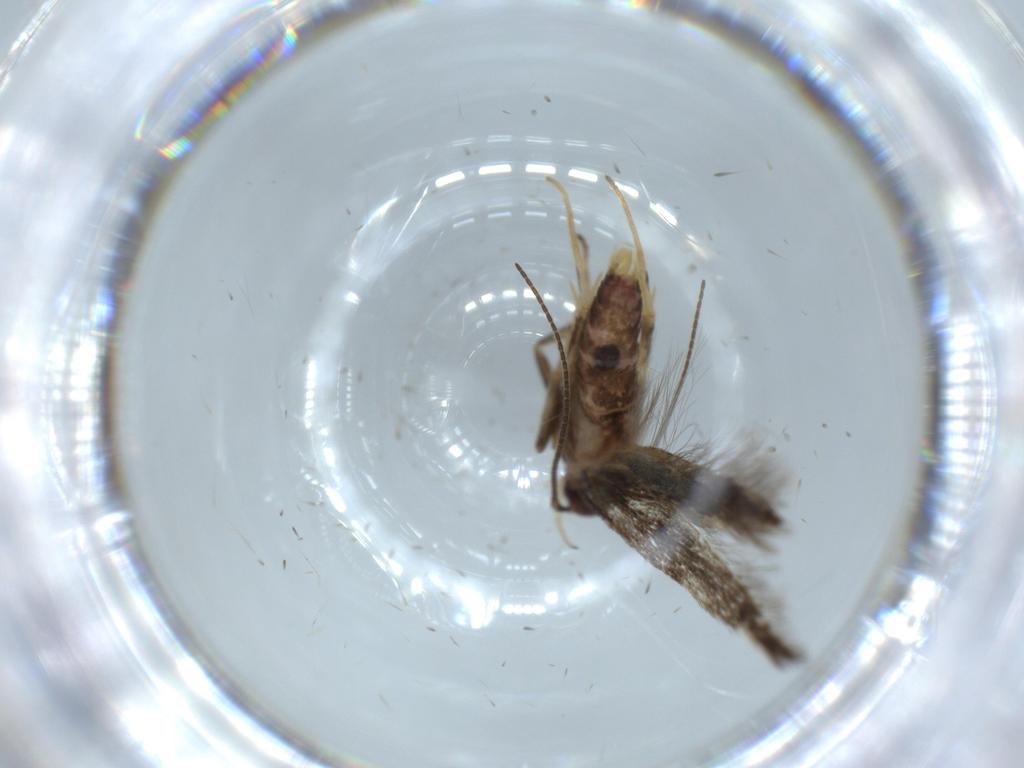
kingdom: Animalia
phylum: Arthropoda
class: Insecta
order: Lepidoptera
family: Cosmopterigidae
